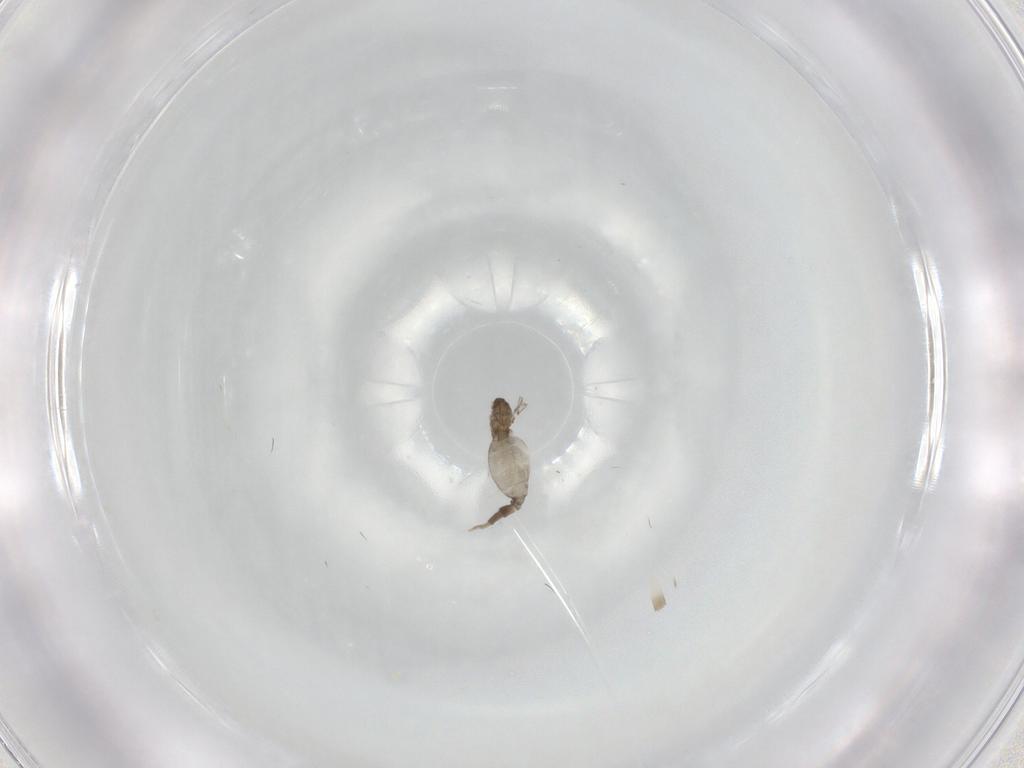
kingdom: Animalia
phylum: Arthropoda
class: Insecta
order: Diptera
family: Cecidomyiidae
